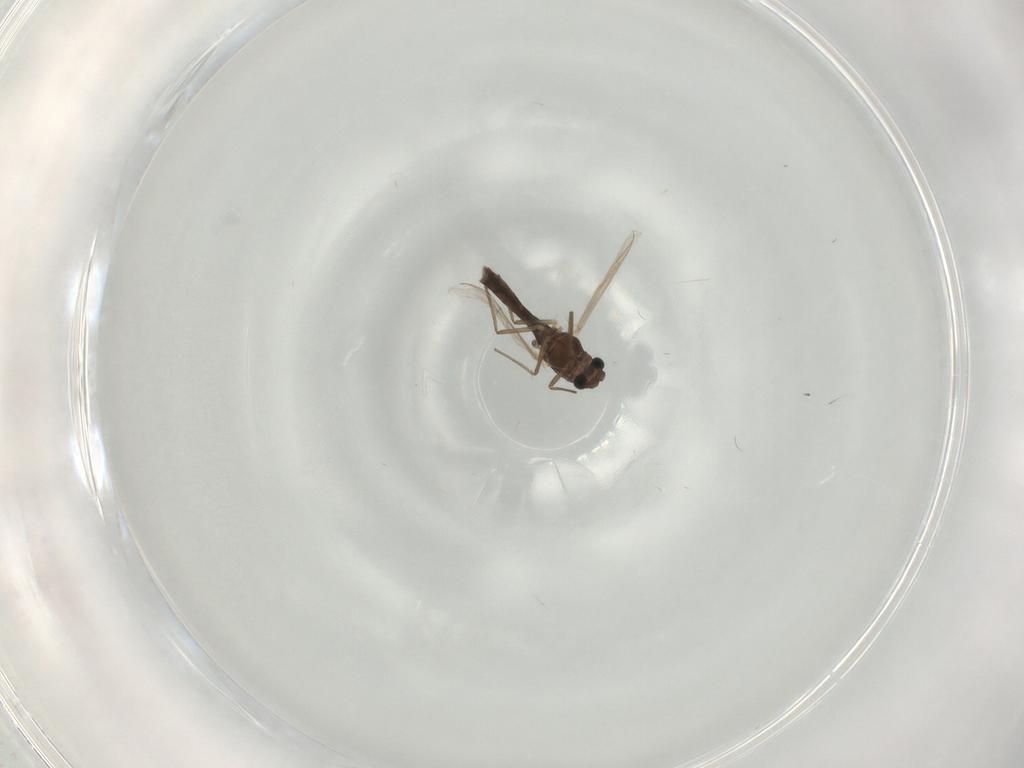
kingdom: Animalia
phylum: Arthropoda
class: Insecta
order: Diptera
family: Chironomidae
